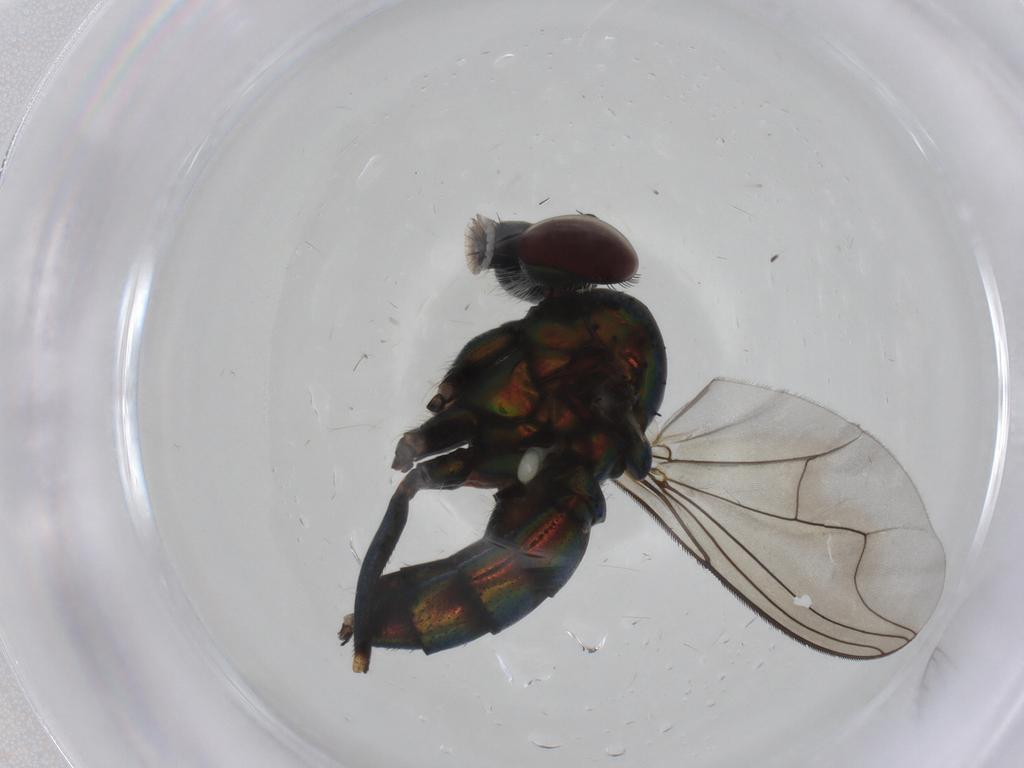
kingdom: Animalia
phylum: Arthropoda
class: Insecta
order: Diptera
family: Dolichopodidae
